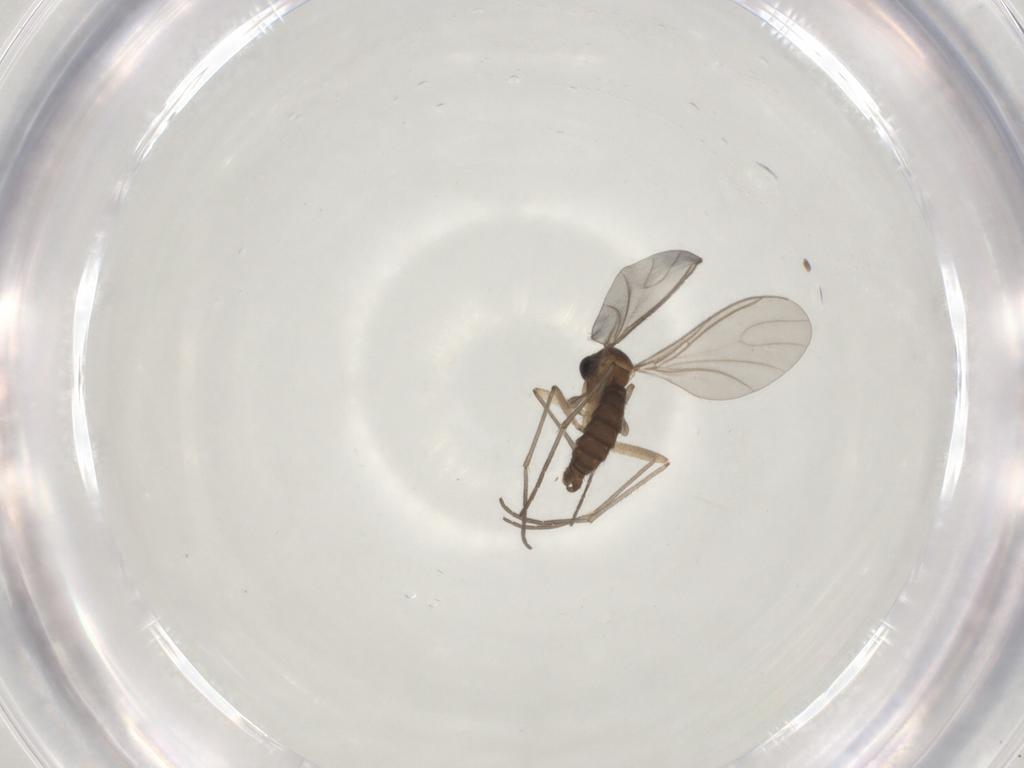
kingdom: Animalia
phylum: Arthropoda
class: Insecta
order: Diptera
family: Sciaridae
